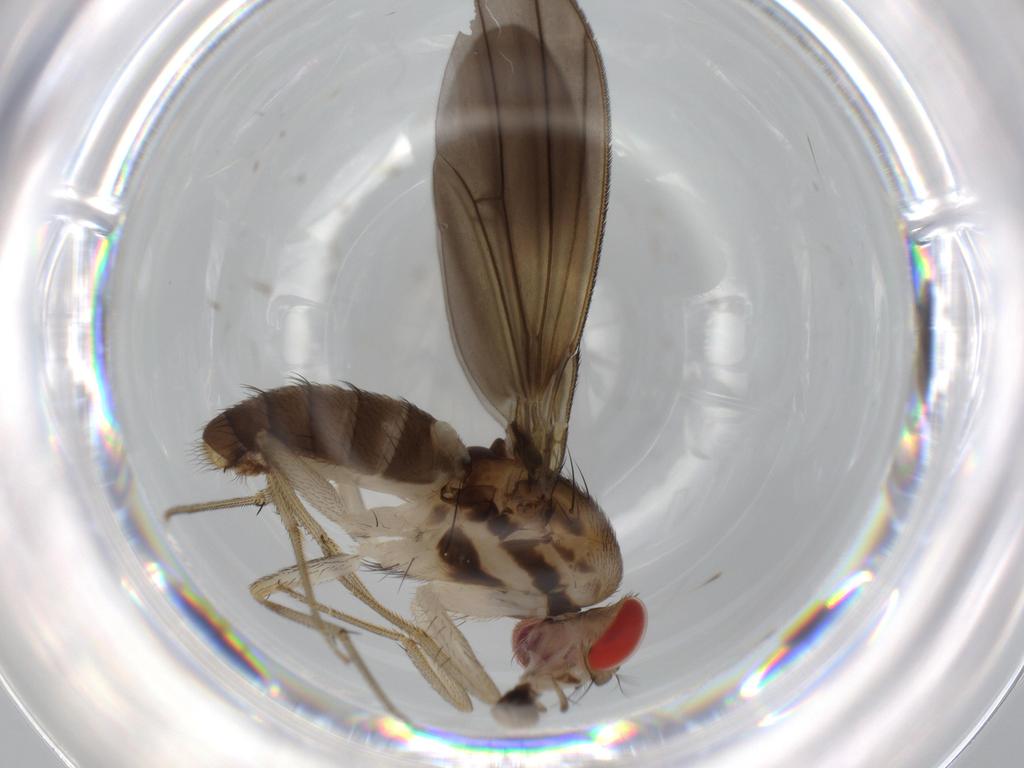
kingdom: Animalia
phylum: Arthropoda
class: Insecta
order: Diptera
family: Drosophilidae
